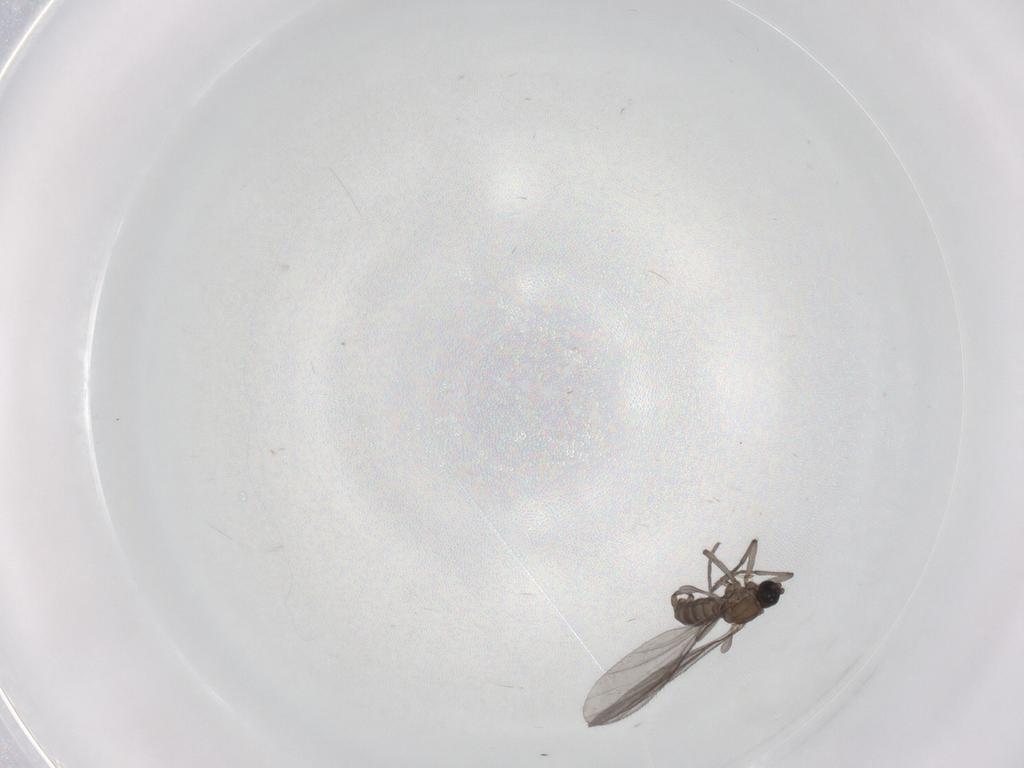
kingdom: Animalia
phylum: Arthropoda
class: Insecta
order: Diptera
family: Sciaridae
